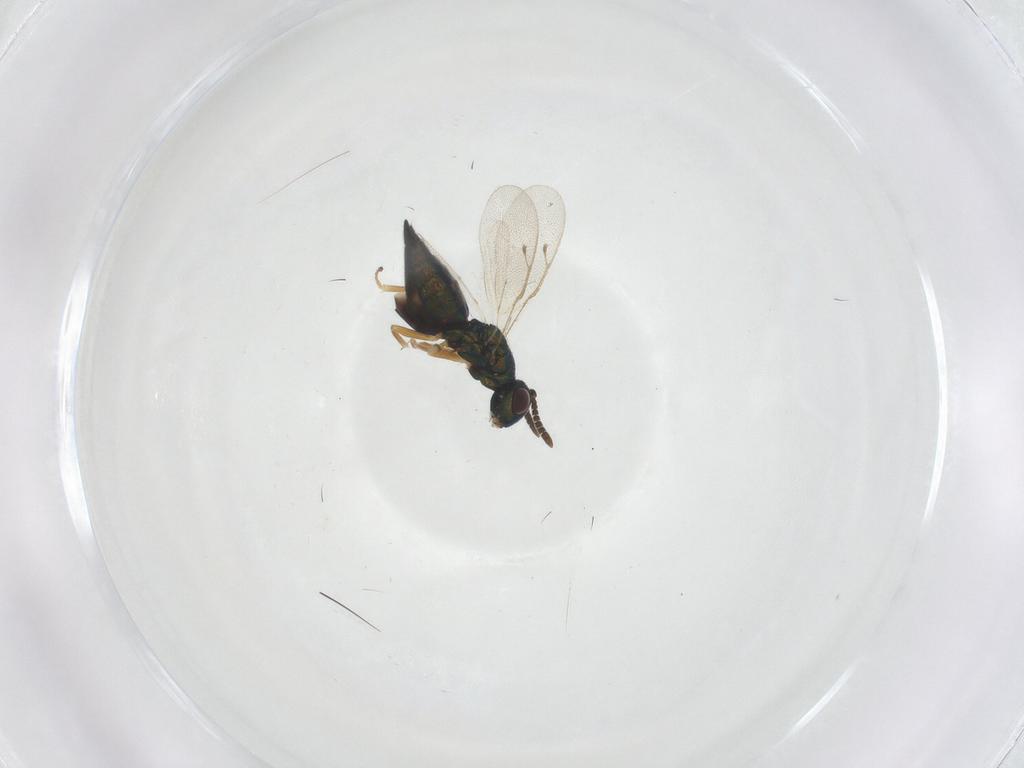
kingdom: Animalia
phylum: Arthropoda
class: Insecta
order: Hymenoptera
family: Pteromalidae
